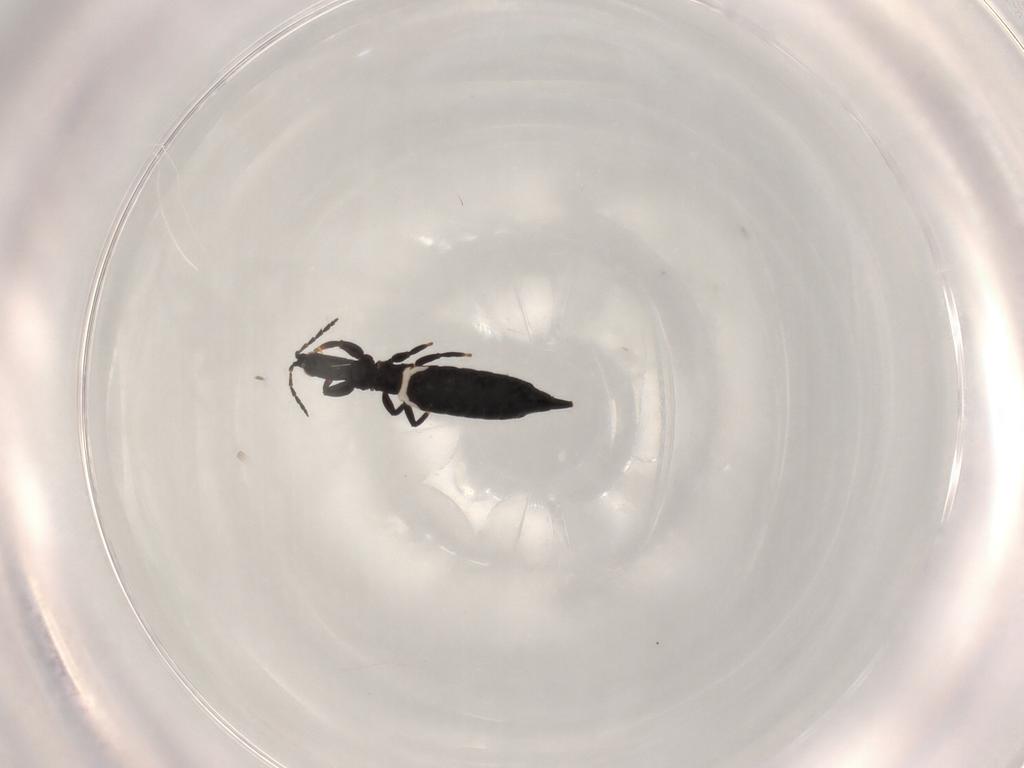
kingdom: Animalia
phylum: Arthropoda
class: Insecta
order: Thysanoptera
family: Phlaeothripidae
